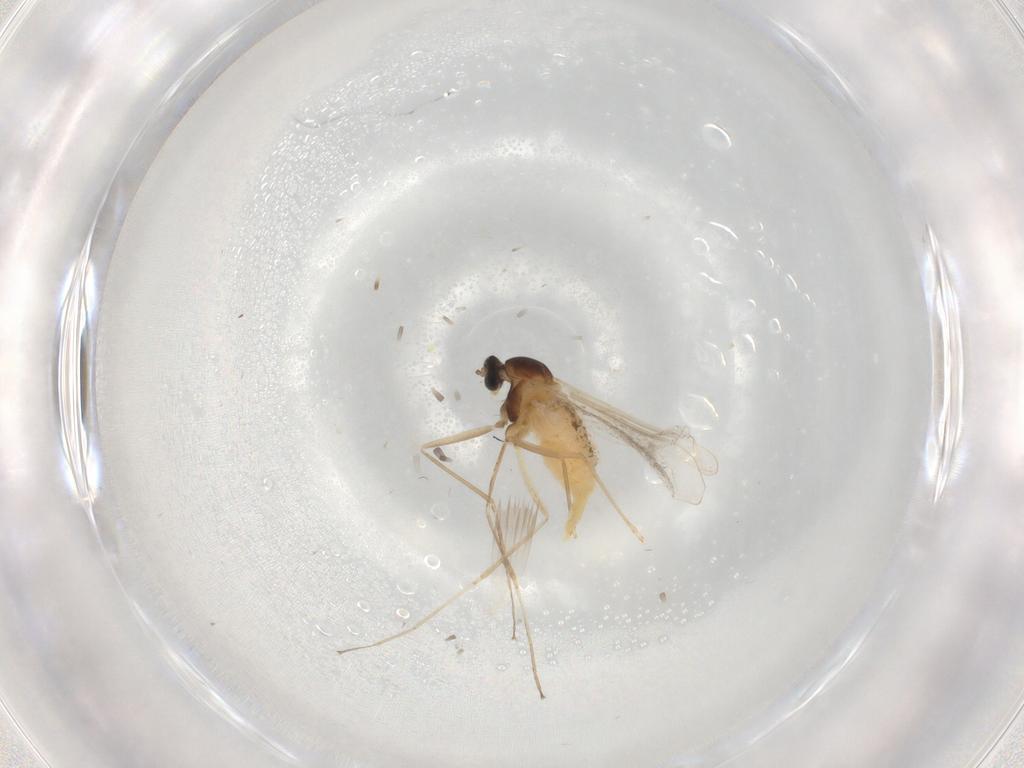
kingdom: Animalia
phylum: Arthropoda
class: Insecta
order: Diptera
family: Cecidomyiidae
